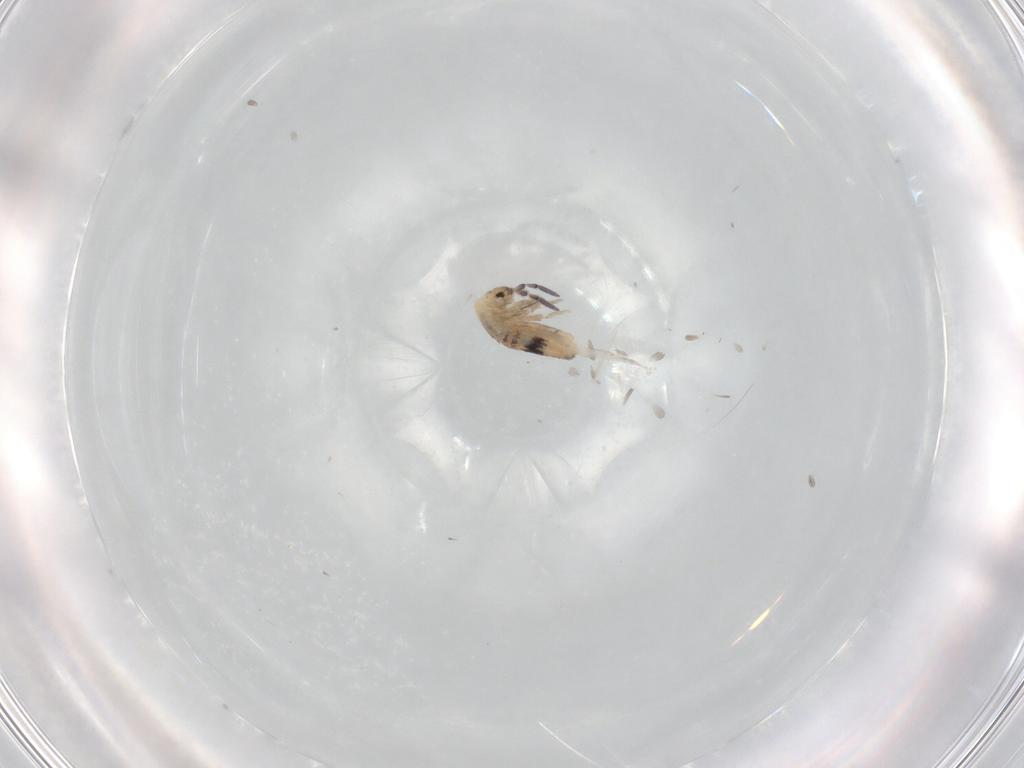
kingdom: Animalia
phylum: Arthropoda
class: Collembola
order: Entomobryomorpha
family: Entomobryidae
